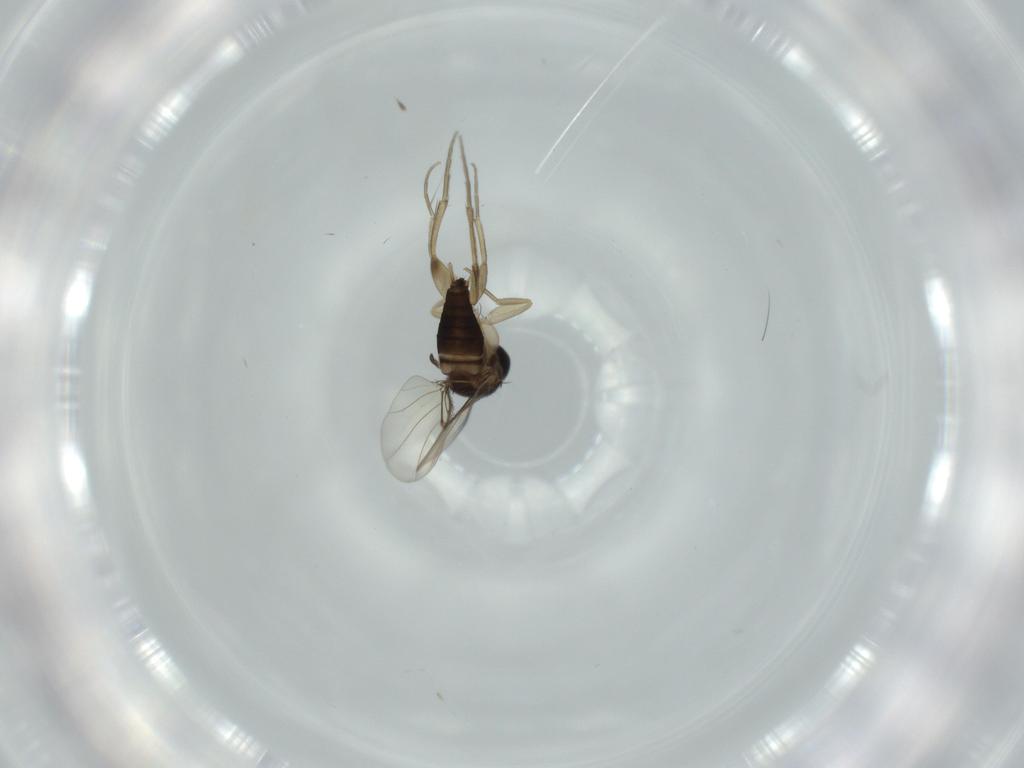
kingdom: Animalia
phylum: Arthropoda
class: Insecta
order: Diptera
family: Phoridae
